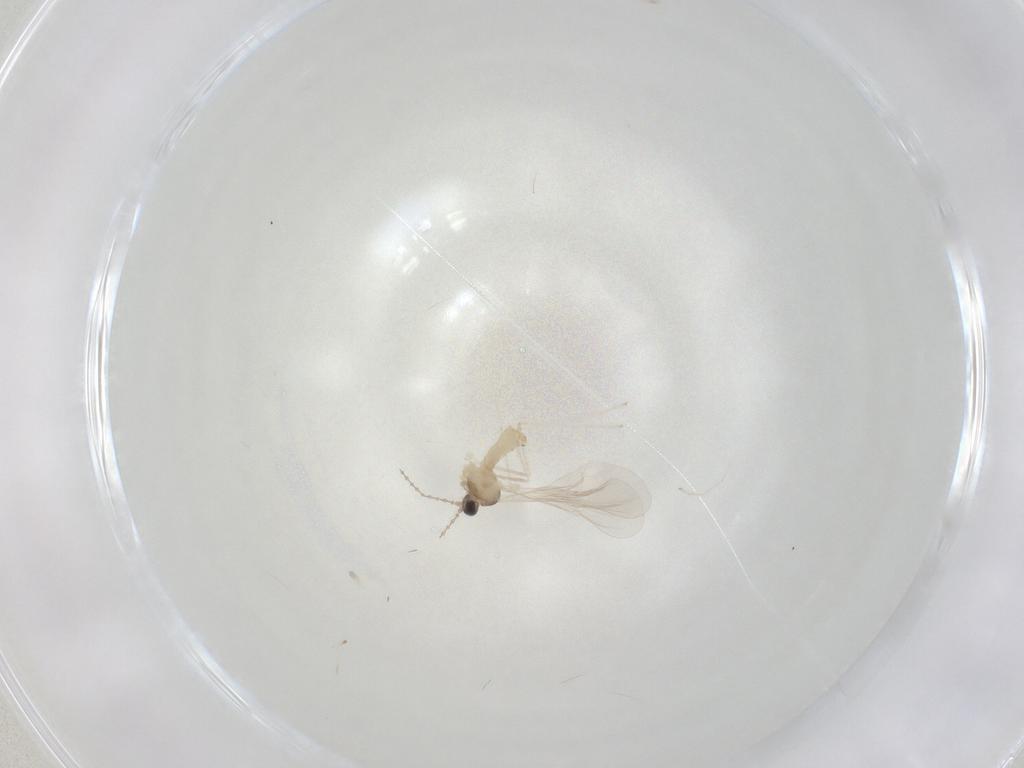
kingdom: Animalia
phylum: Arthropoda
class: Insecta
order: Diptera
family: Cecidomyiidae
